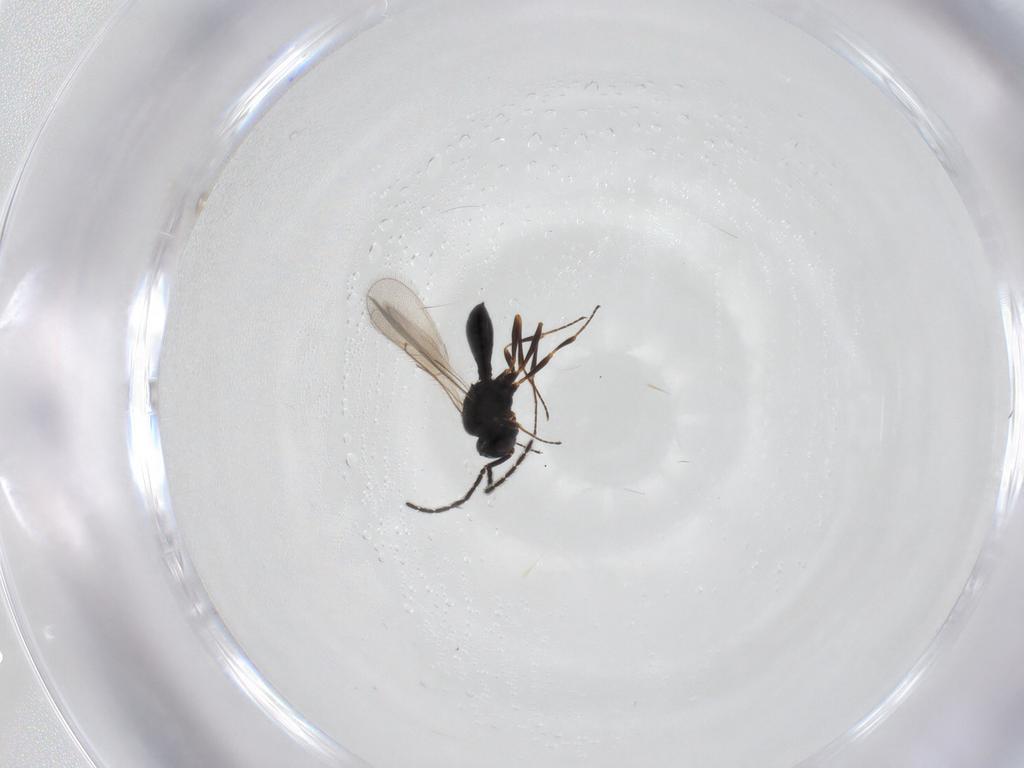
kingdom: Animalia
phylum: Arthropoda
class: Insecta
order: Hymenoptera
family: Scelionidae
